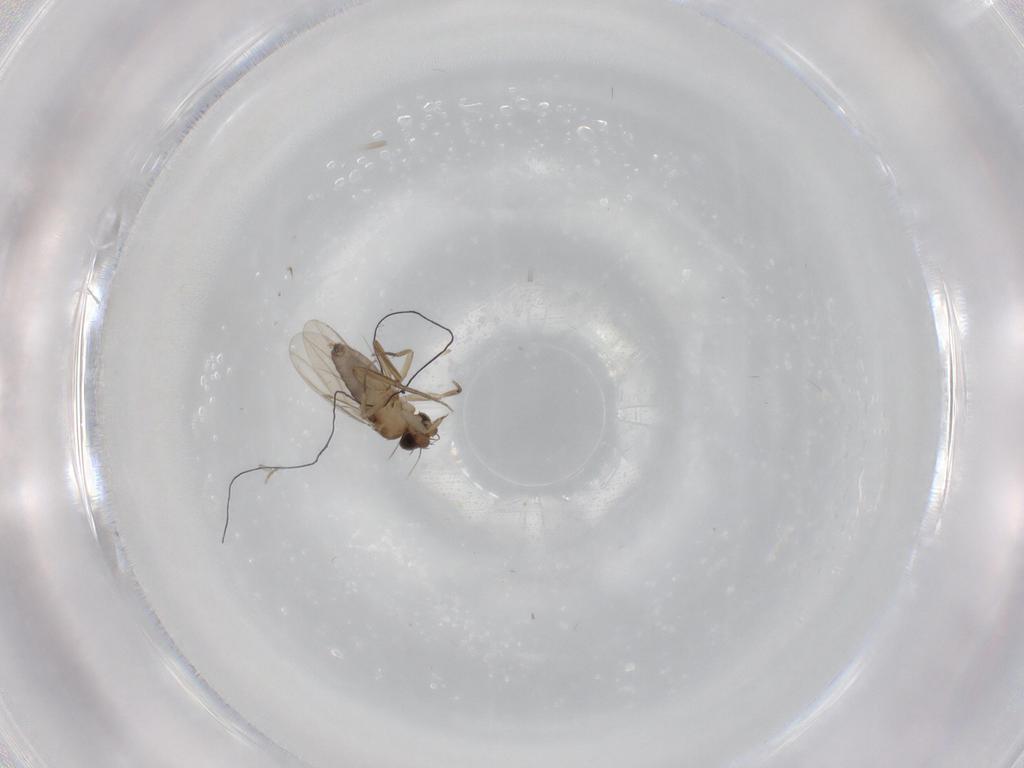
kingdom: Animalia
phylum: Arthropoda
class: Insecta
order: Diptera
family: Phoridae
